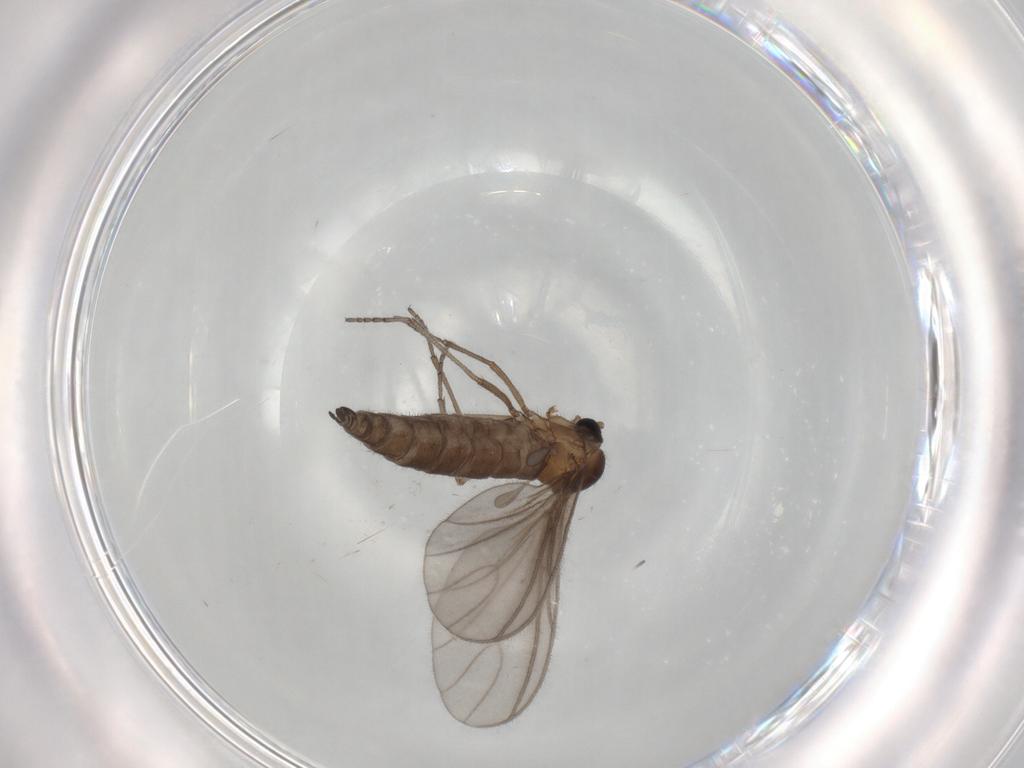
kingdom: Animalia
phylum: Arthropoda
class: Insecta
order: Diptera
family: Sciaridae
